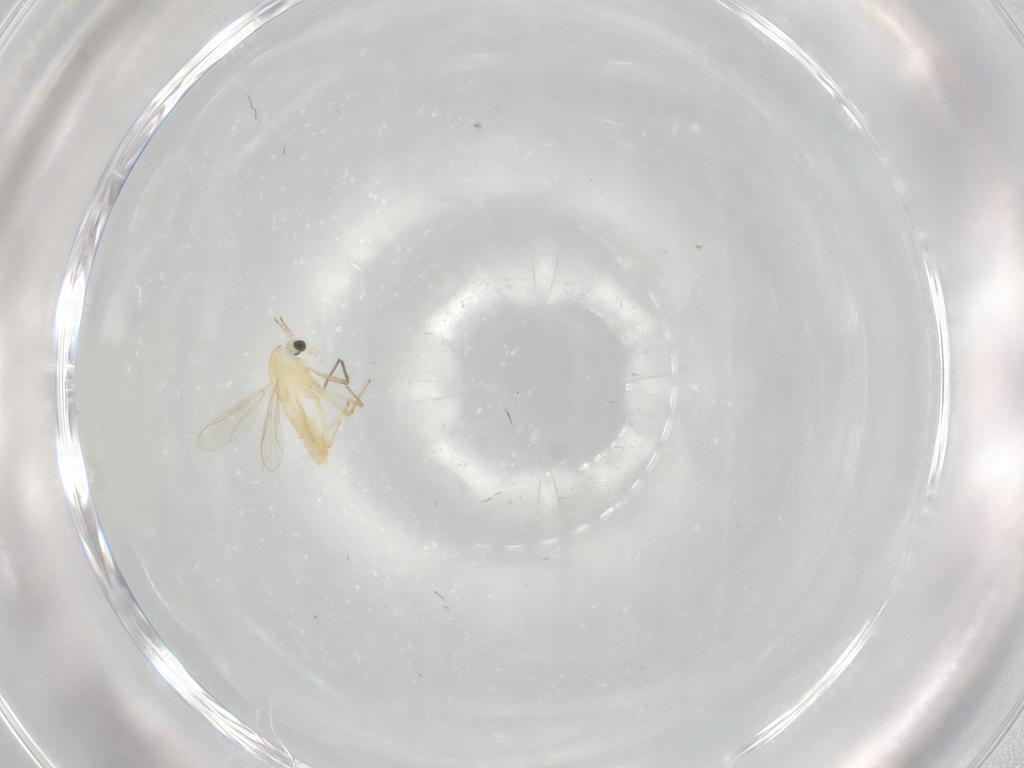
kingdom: Animalia
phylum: Arthropoda
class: Insecta
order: Diptera
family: Chironomidae
